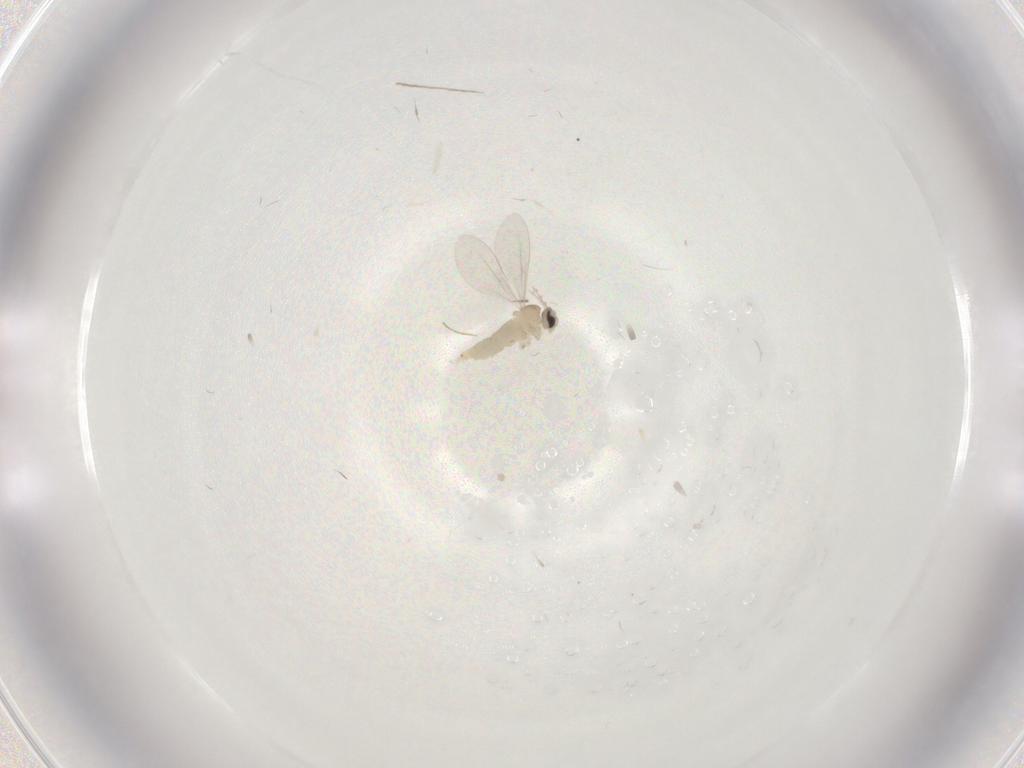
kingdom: Animalia
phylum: Arthropoda
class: Insecta
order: Diptera
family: Chironomidae
